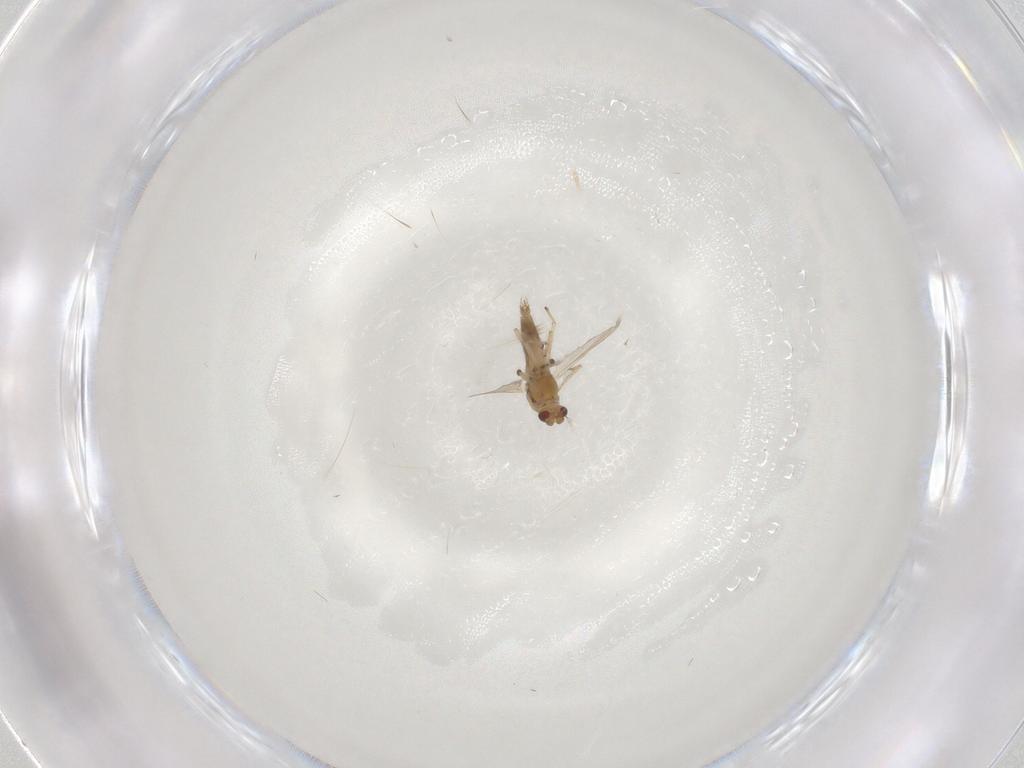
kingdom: Animalia
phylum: Arthropoda
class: Insecta
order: Diptera
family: Chironomidae
